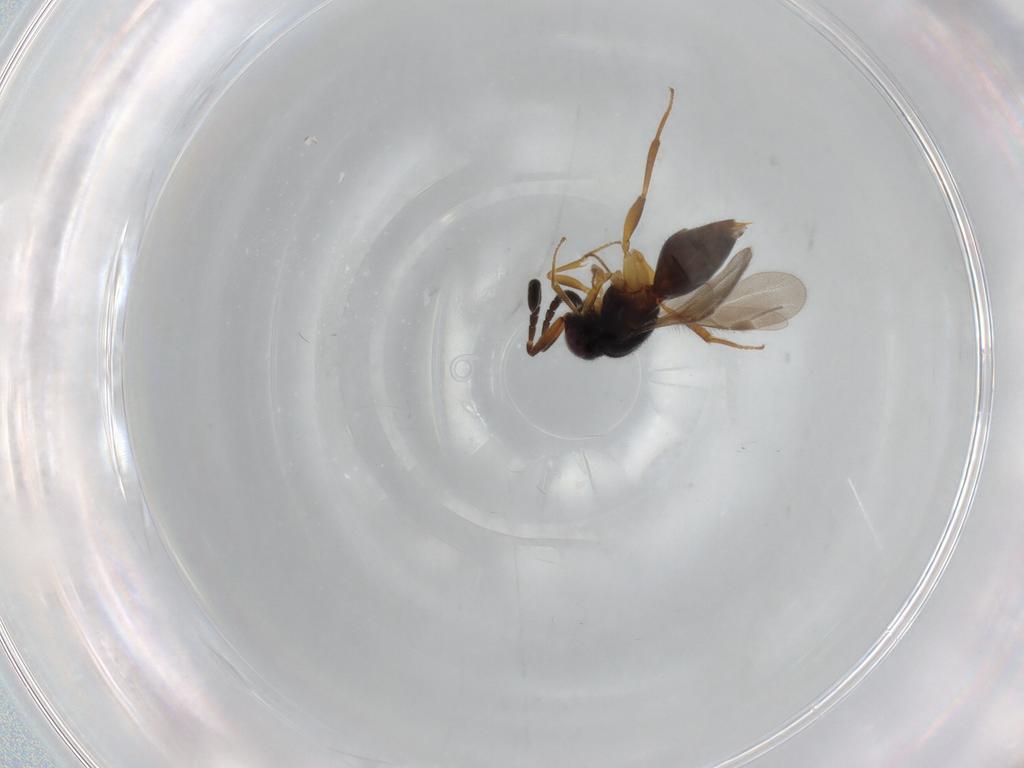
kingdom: Animalia
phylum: Arthropoda
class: Insecta
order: Hymenoptera
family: Megaspilidae
